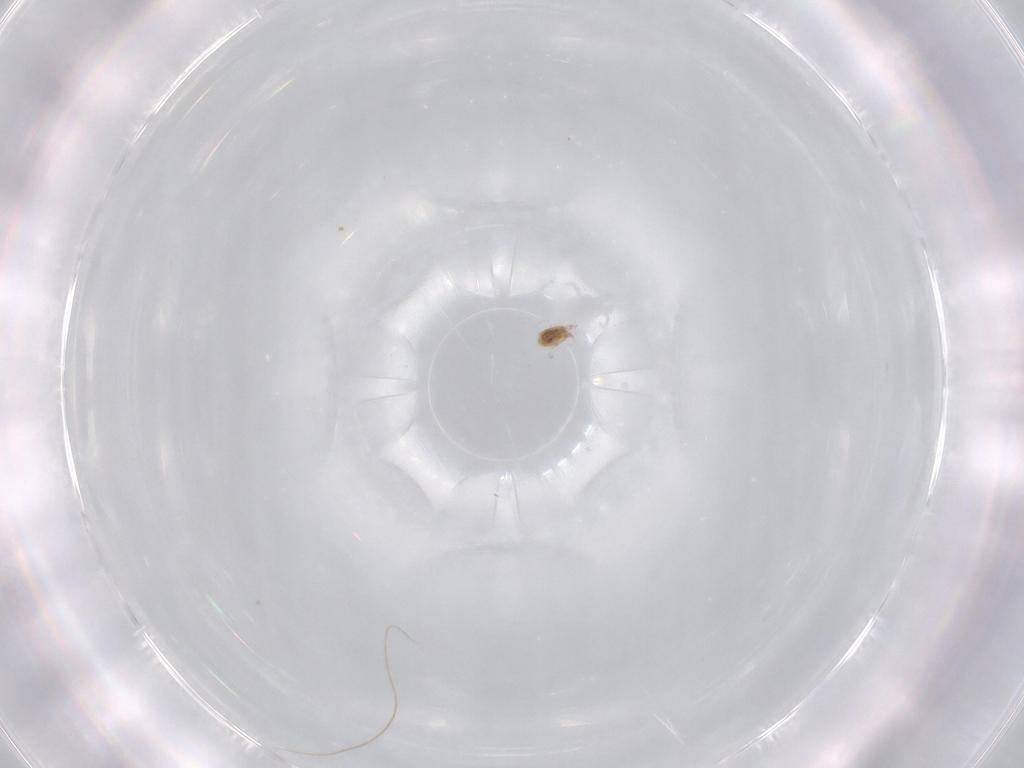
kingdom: Animalia
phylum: Arthropoda
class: Arachnida
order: Trombidiformes
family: Limnesiidae
